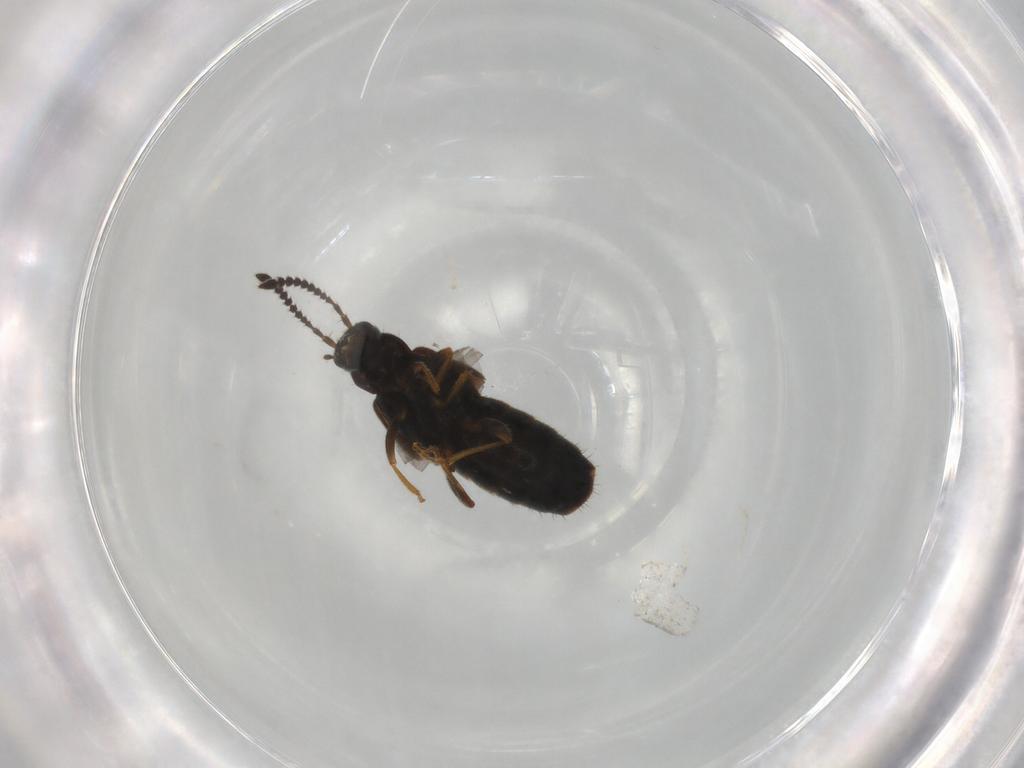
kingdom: Animalia
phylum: Arthropoda
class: Insecta
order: Coleoptera
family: Staphylinidae
